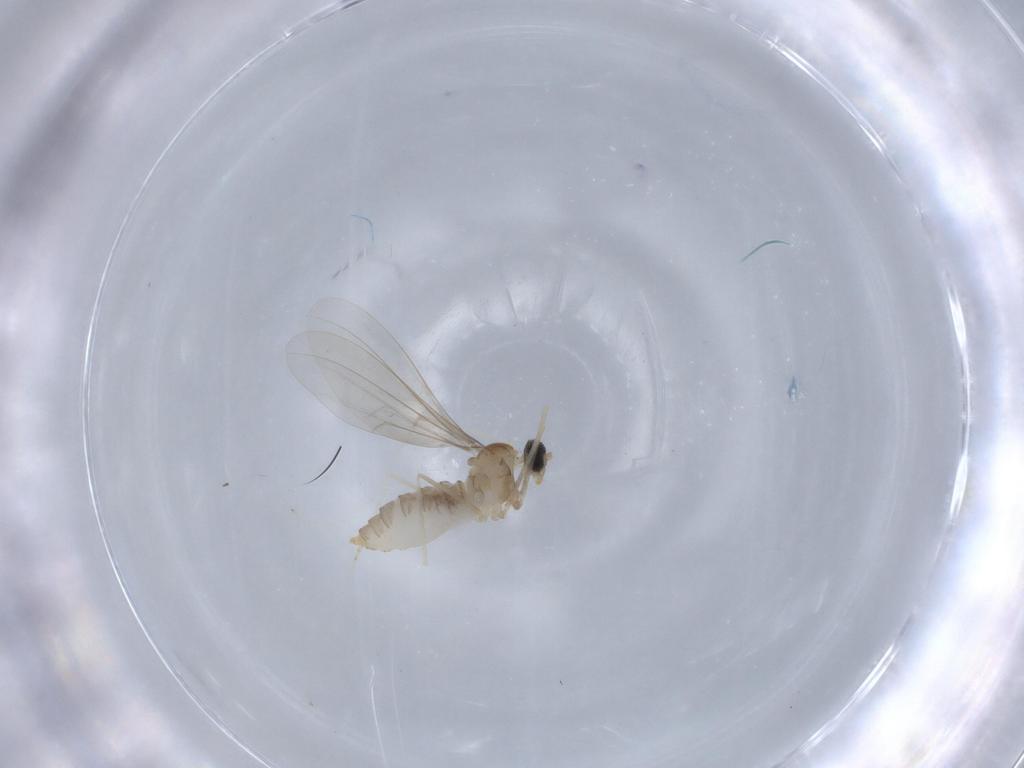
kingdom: Animalia
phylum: Arthropoda
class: Insecta
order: Diptera
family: Cecidomyiidae
